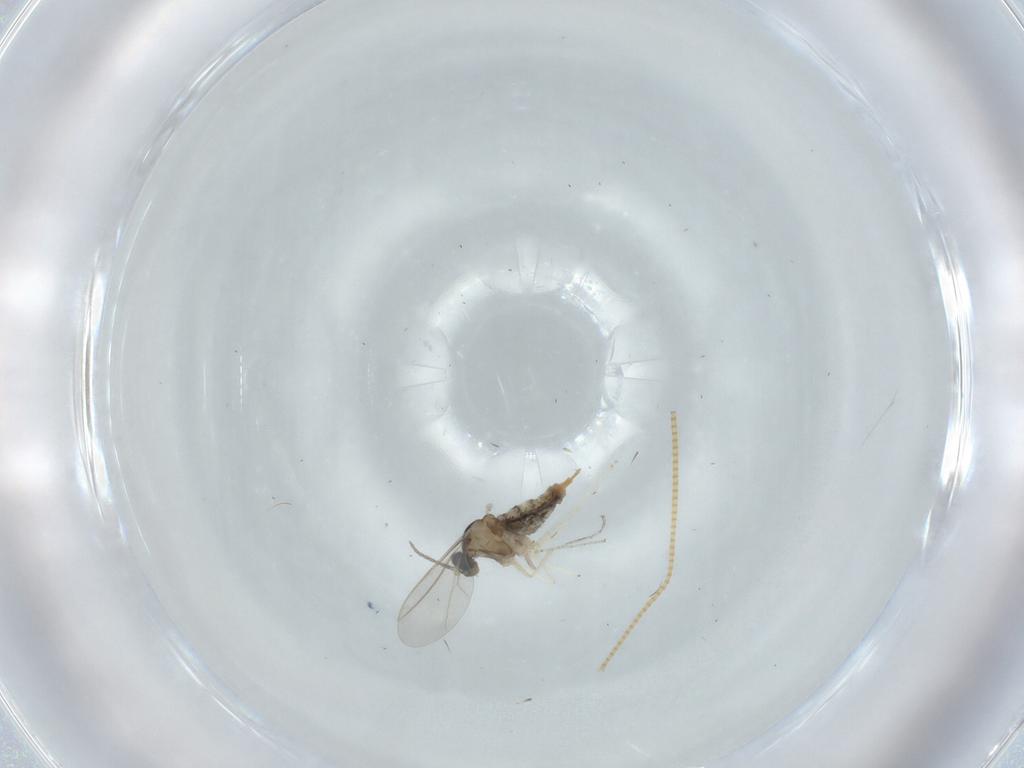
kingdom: Animalia
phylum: Arthropoda
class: Insecta
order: Diptera
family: Cecidomyiidae
